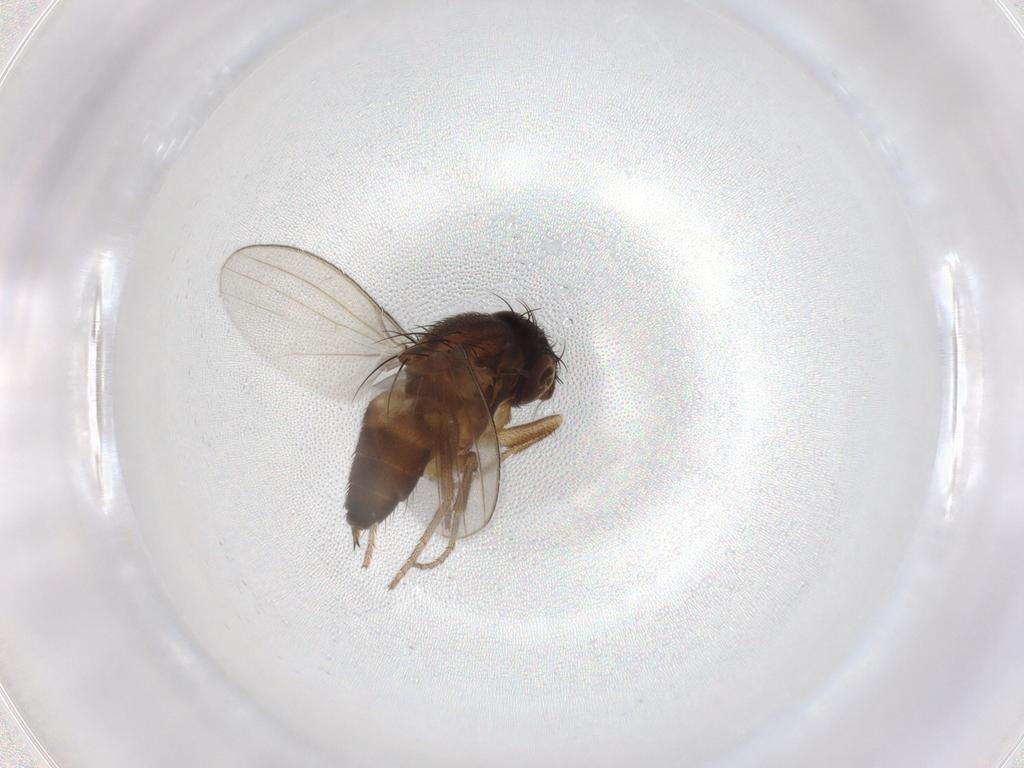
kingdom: Animalia
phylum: Arthropoda
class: Insecta
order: Diptera
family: Milichiidae
